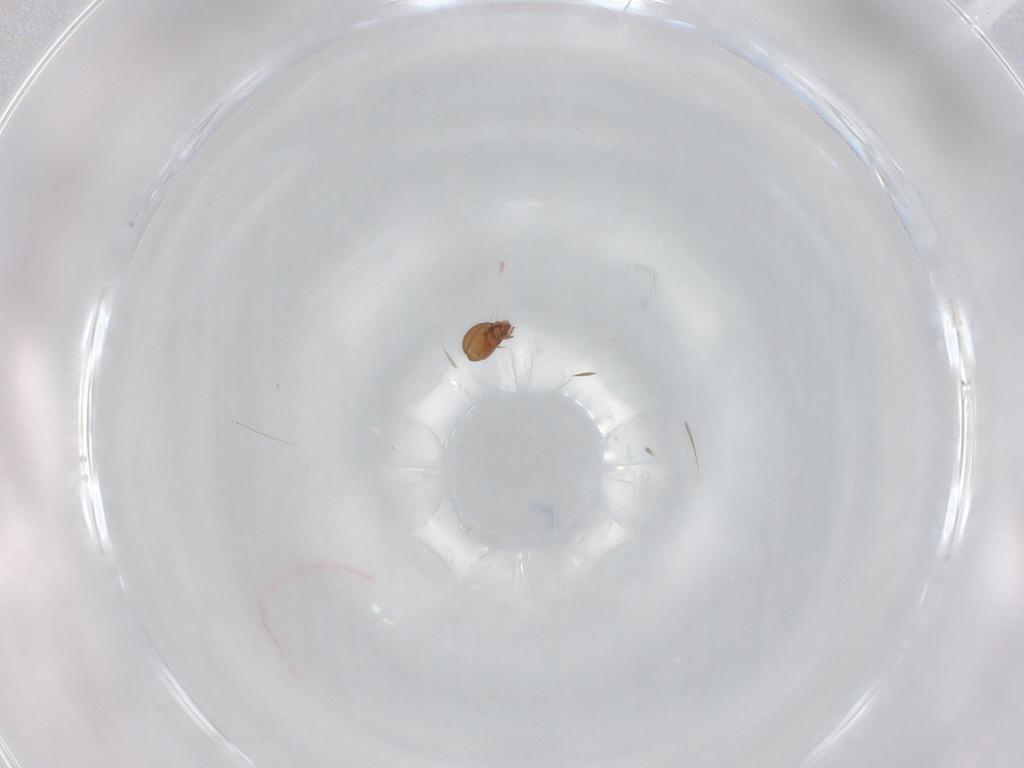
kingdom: Animalia
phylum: Arthropoda
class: Arachnida
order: Sarcoptiformes
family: Oribatulidae
